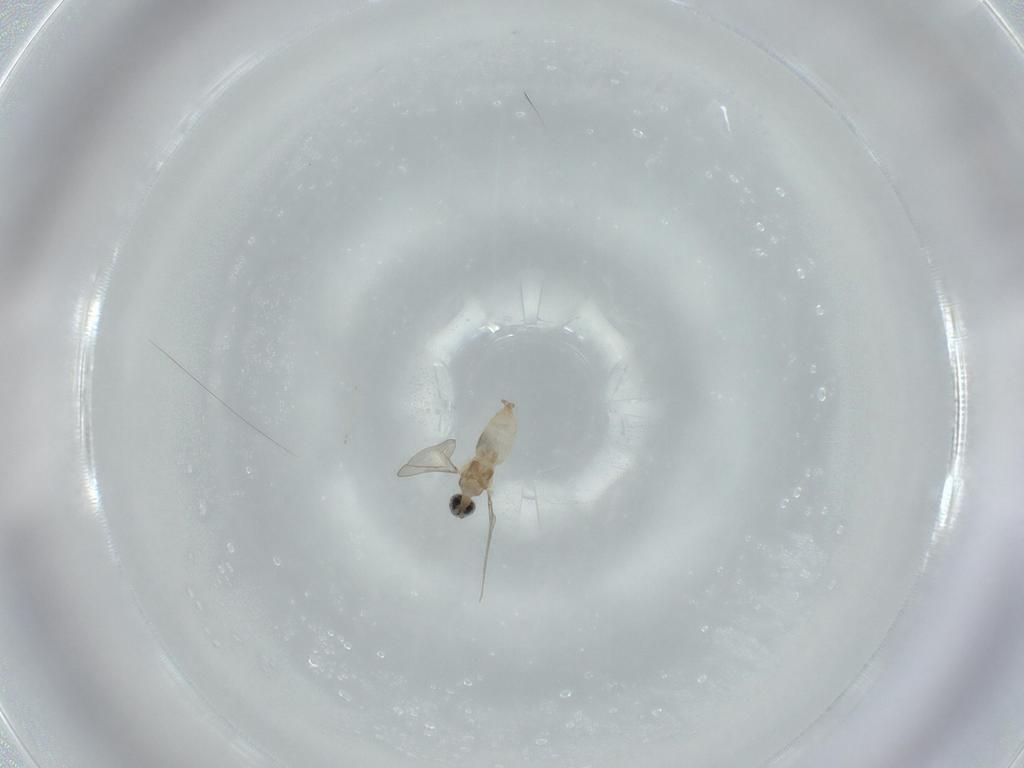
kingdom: Animalia
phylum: Arthropoda
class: Insecta
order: Diptera
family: Cecidomyiidae
